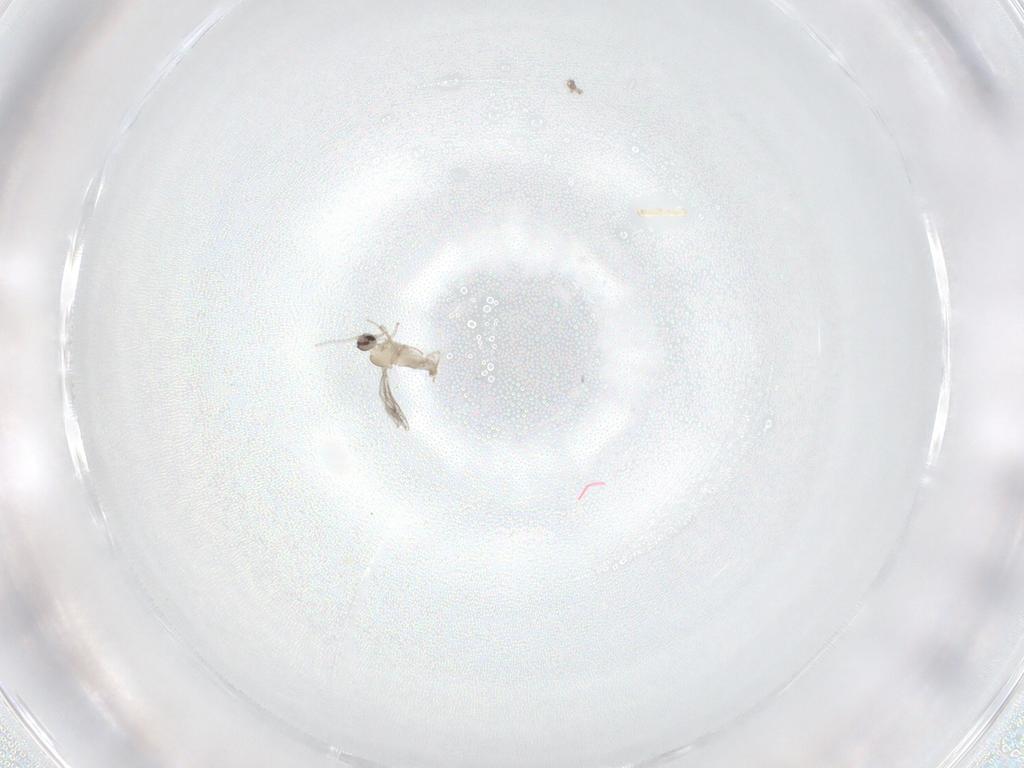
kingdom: Animalia
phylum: Arthropoda
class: Insecta
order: Diptera
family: Cecidomyiidae
